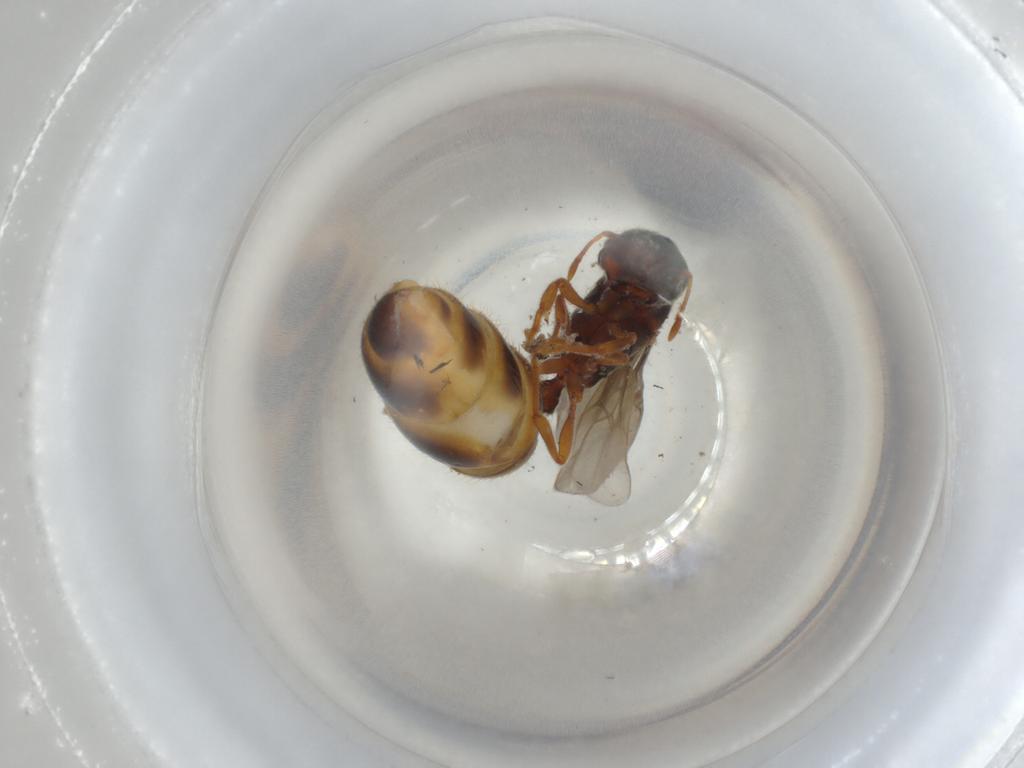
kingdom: Animalia
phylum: Arthropoda
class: Insecta
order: Hymenoptera
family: Formicidae
